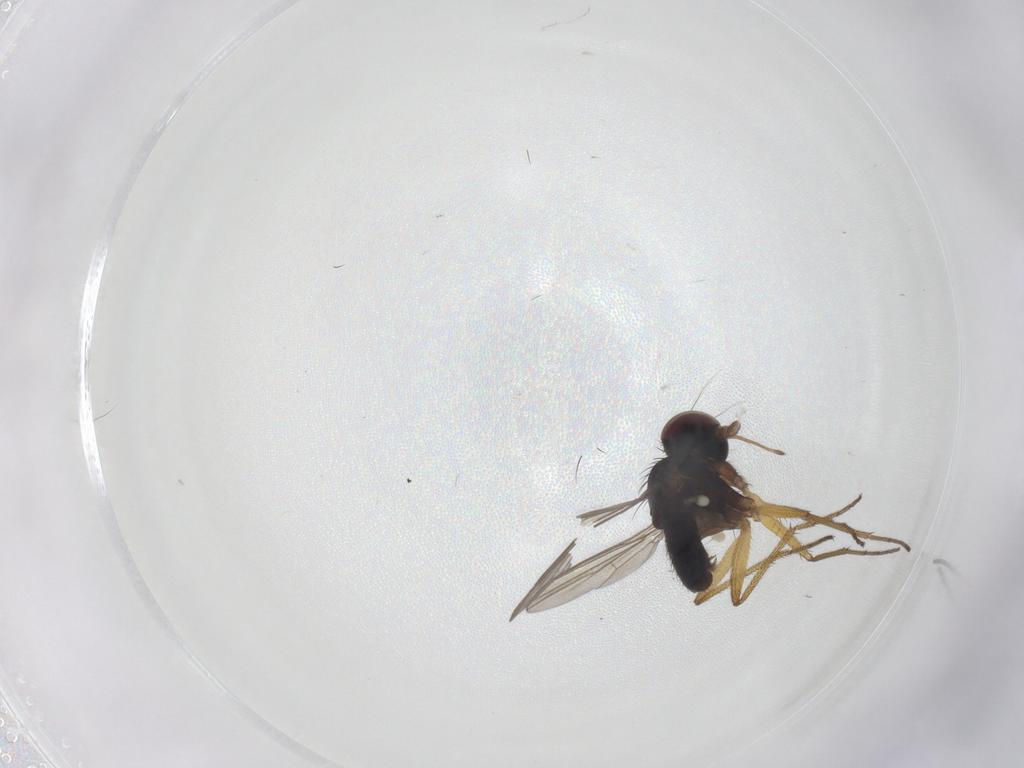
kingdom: Animalia
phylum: Arthropoda
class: Insecta
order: Diptera
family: Dolichopodidae
